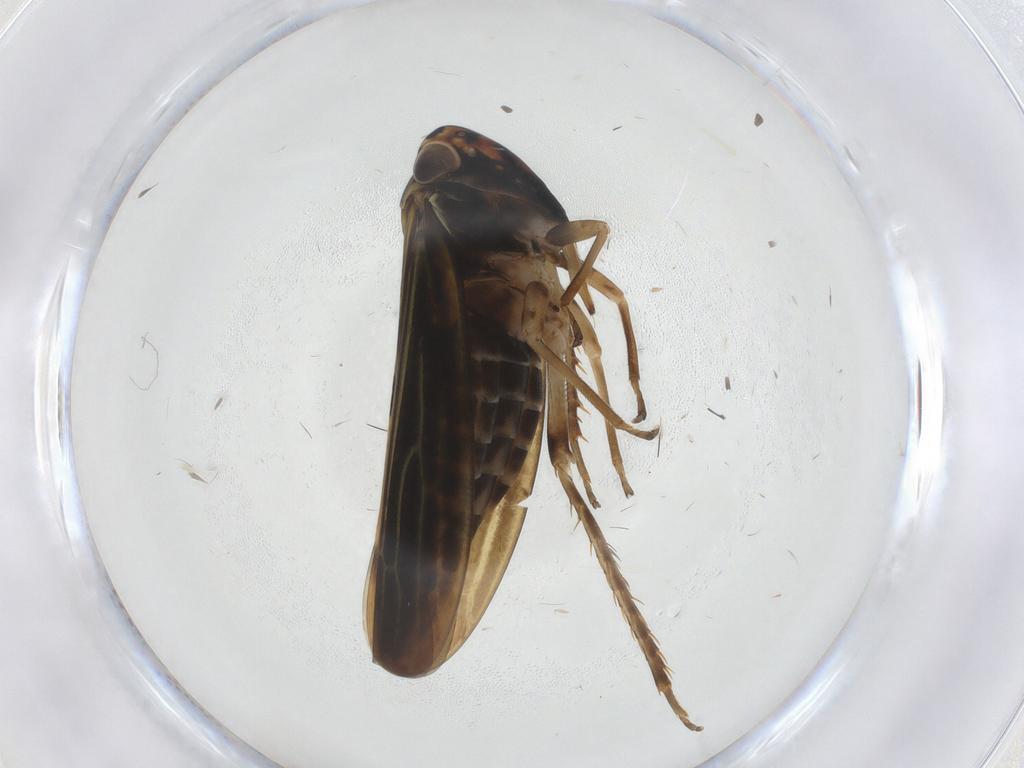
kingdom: Animalia
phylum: Arthropoda
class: Insecta
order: Hemiptera
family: Cicadellidae
